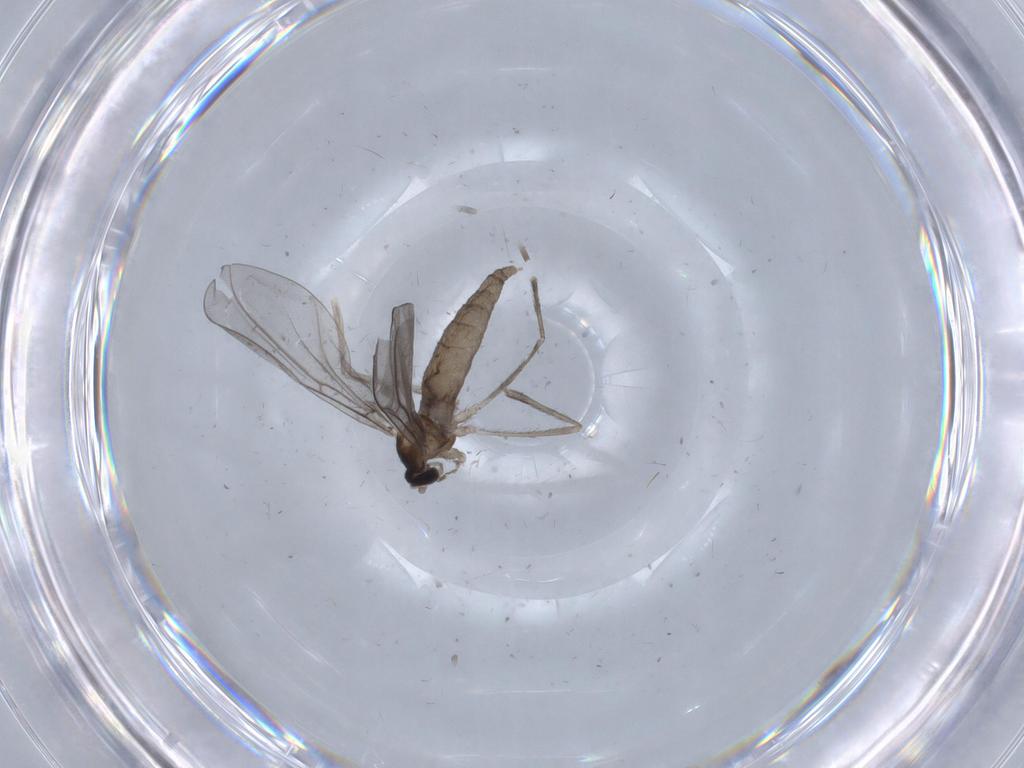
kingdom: Animalia
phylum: Arthropoda
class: Insecta
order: Diptera
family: Cecidomyiidae
